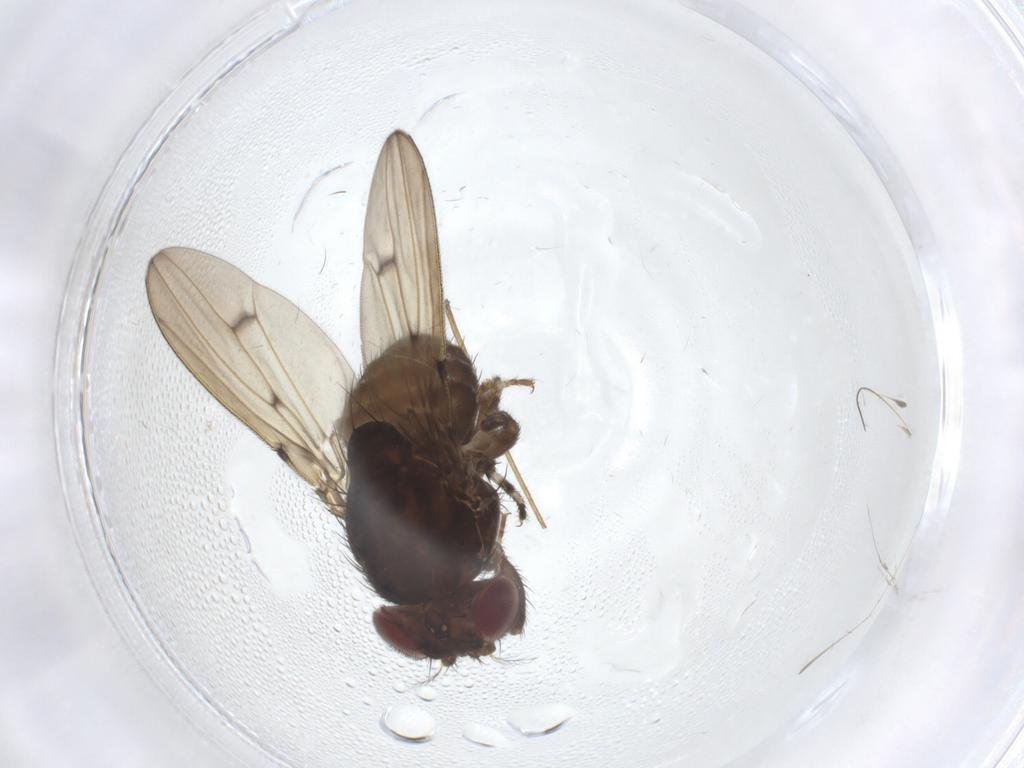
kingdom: Animalia
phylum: Arthropoda
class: Insecta
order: Diptera
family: Drosophilidae
